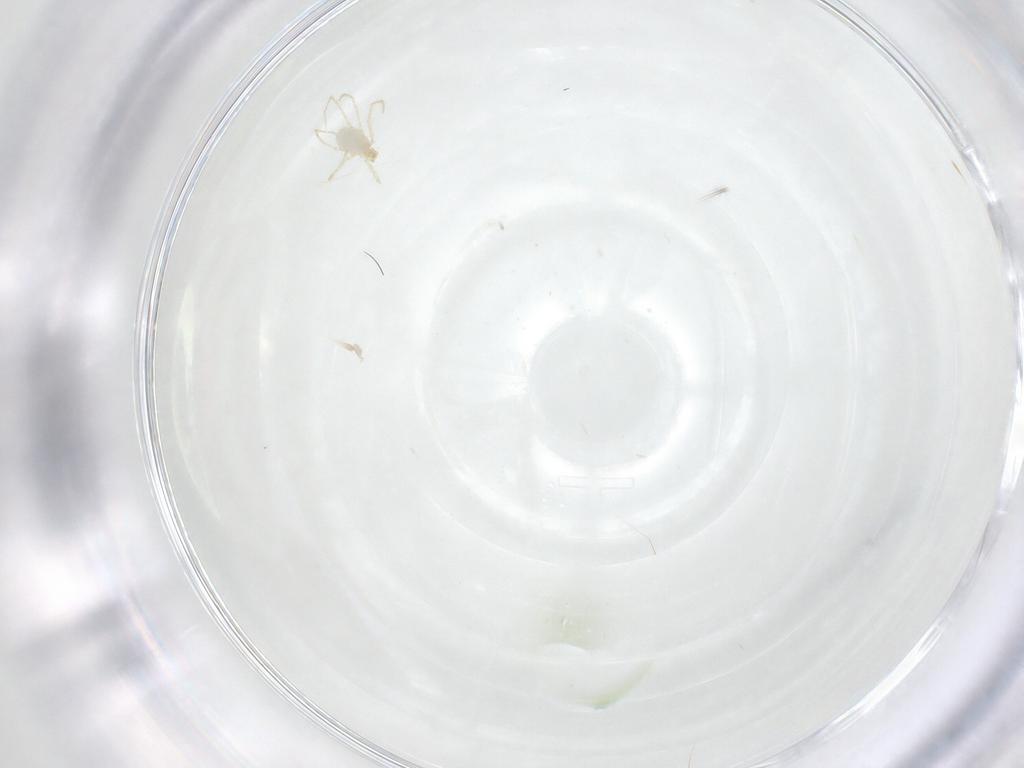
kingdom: Animalia
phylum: Arthropoda
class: Arachnida
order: Trombidiformes
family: Erythraeidae
